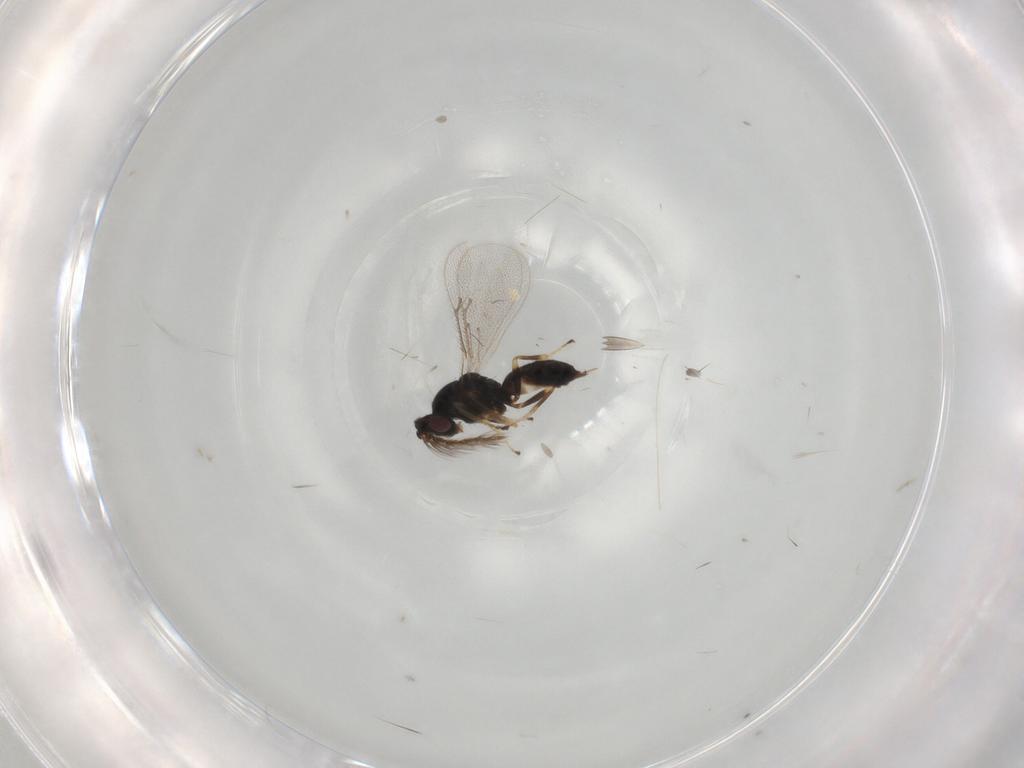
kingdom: Animalia
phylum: Arthropoda
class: Insecta
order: Hymenoptera
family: Eulophidae
